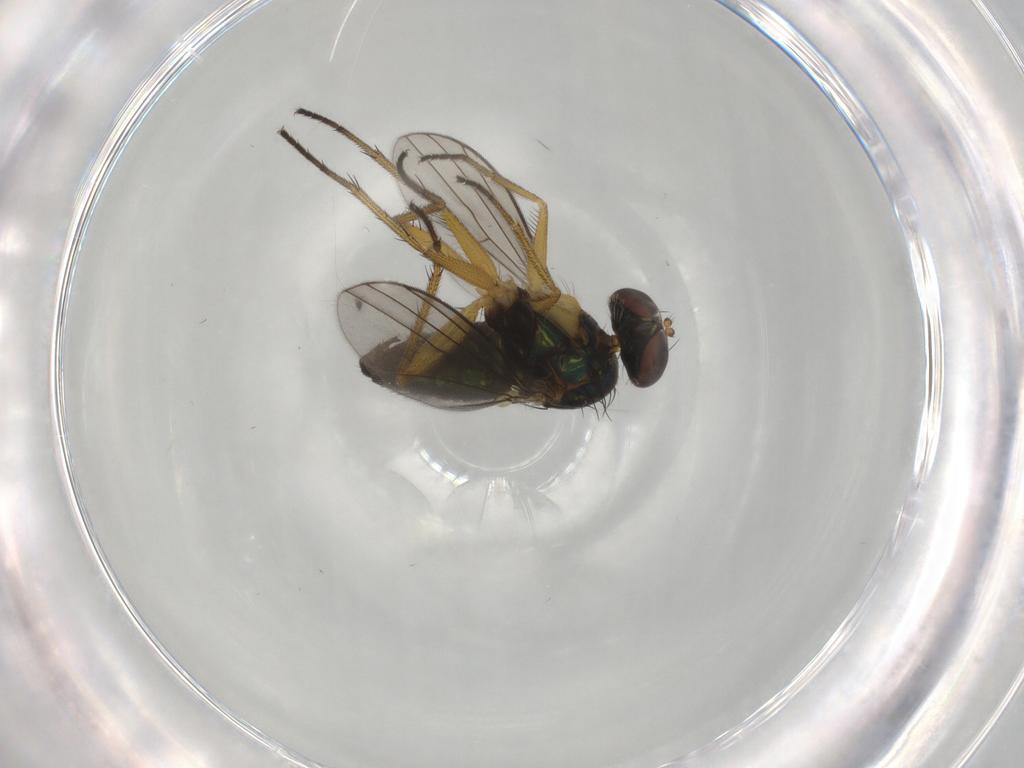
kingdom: Animalia
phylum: Arthropoda
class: Insecta
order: Diptera
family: Dolichopodidae
